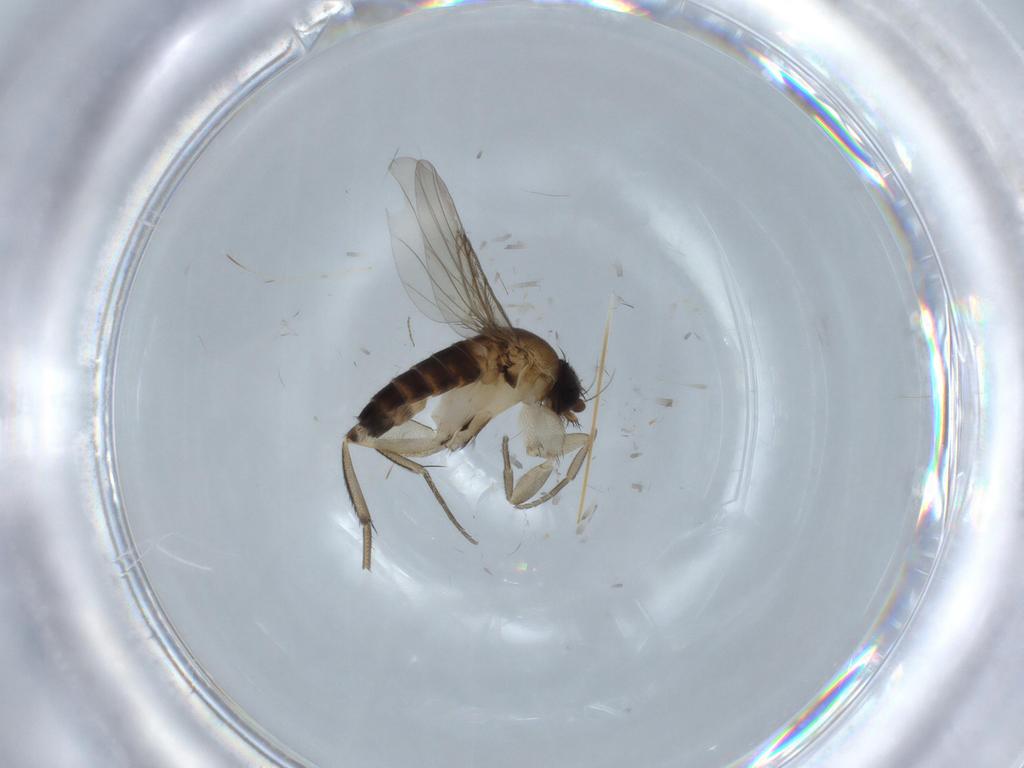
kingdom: Animalia
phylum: Arthropoda
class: Insecta
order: Diptera
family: Phoridae
